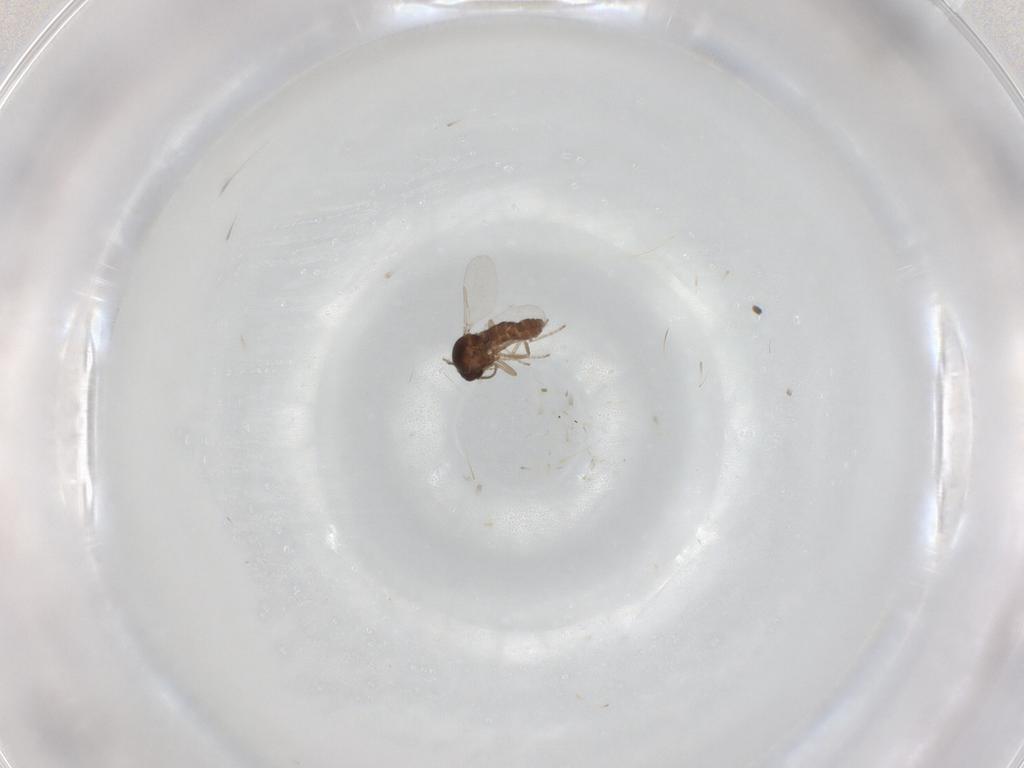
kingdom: Animalia
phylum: Arthropoda
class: Insecta
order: Diptera
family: Ceratopogonidae
